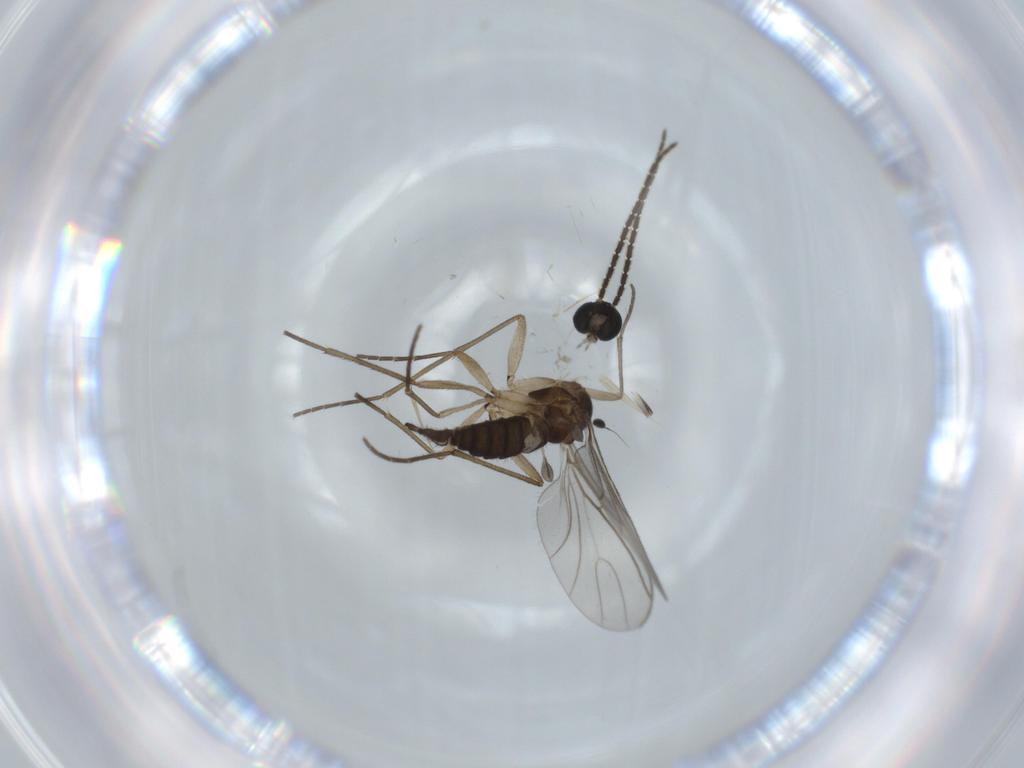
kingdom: Animalia
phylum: Arthropoda
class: Insecta
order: Diptera
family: Sciaridae
